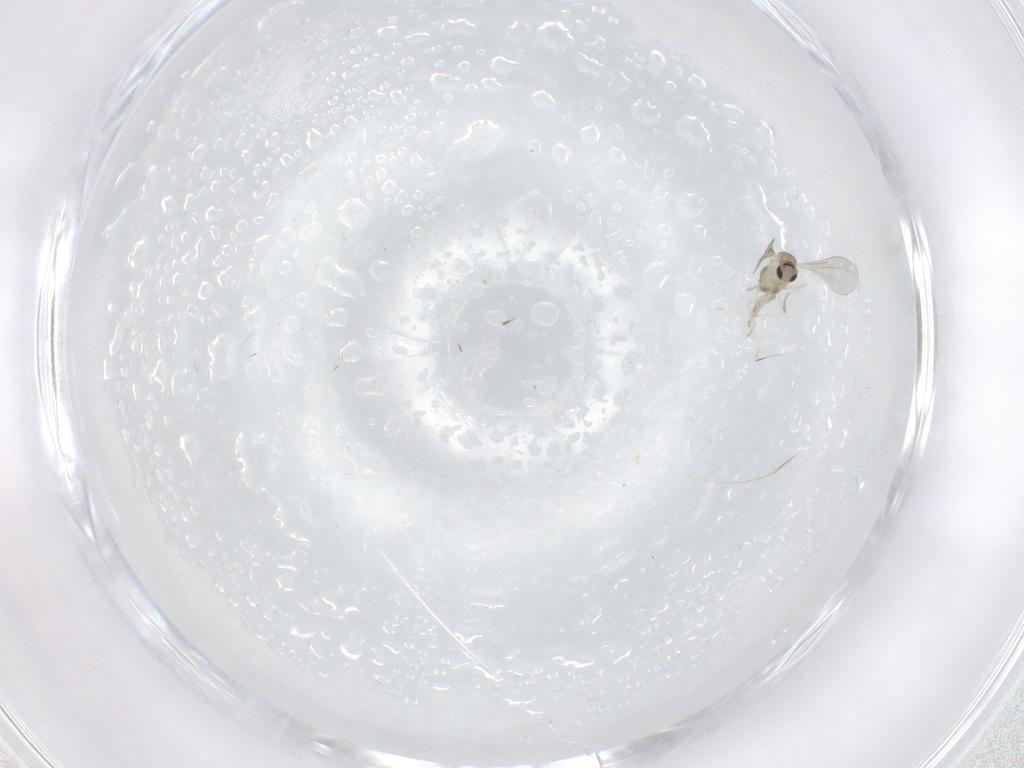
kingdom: Animalia
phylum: Arthropoda
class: Insecta
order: Diptera
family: Cecidomyiidae
